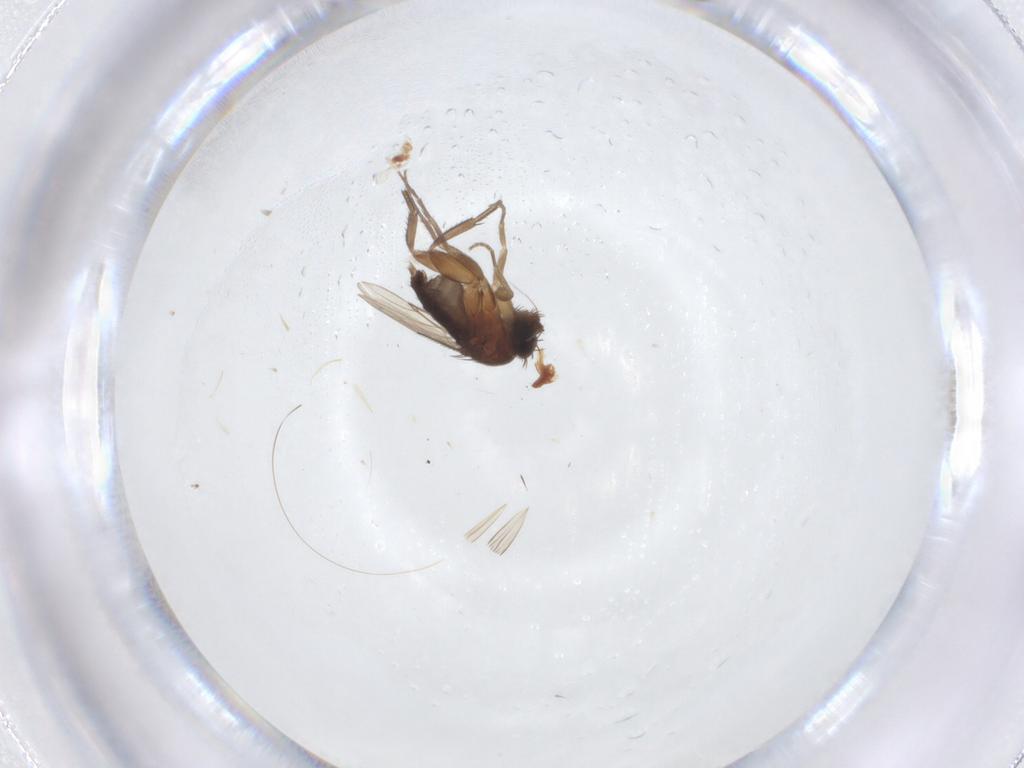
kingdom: Animalia
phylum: Arthropoda
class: Insecta
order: Diptera
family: Phoridae
